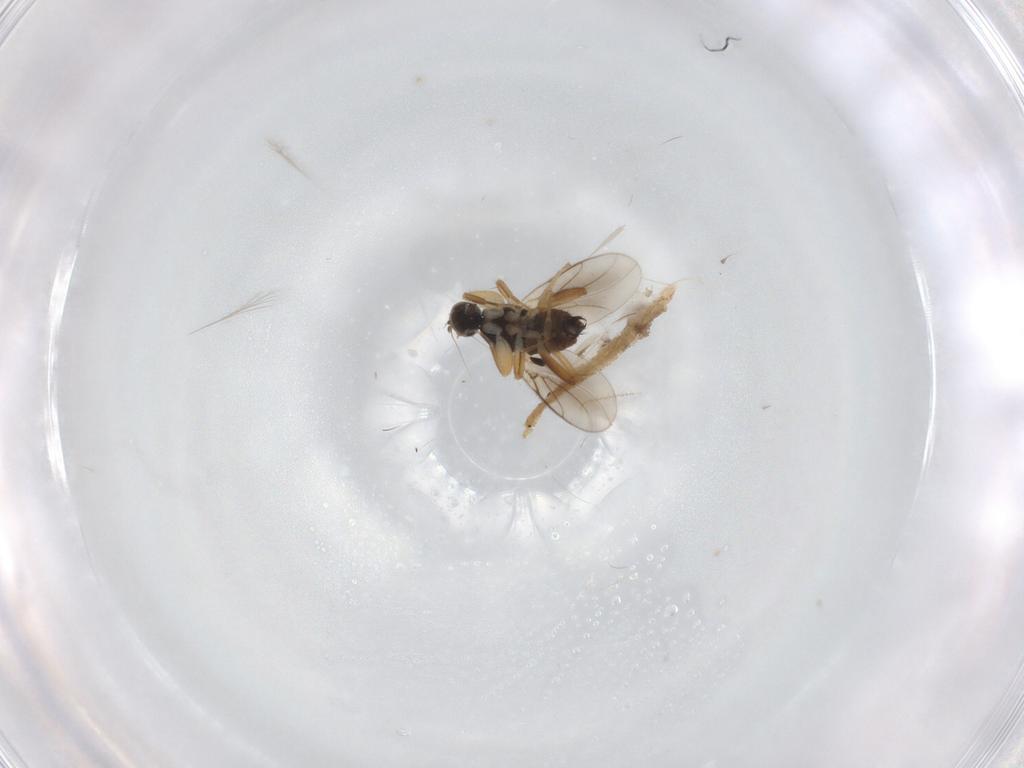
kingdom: Animalia
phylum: Arthropoda
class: Insecta
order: Diptera
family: Hybotidae
